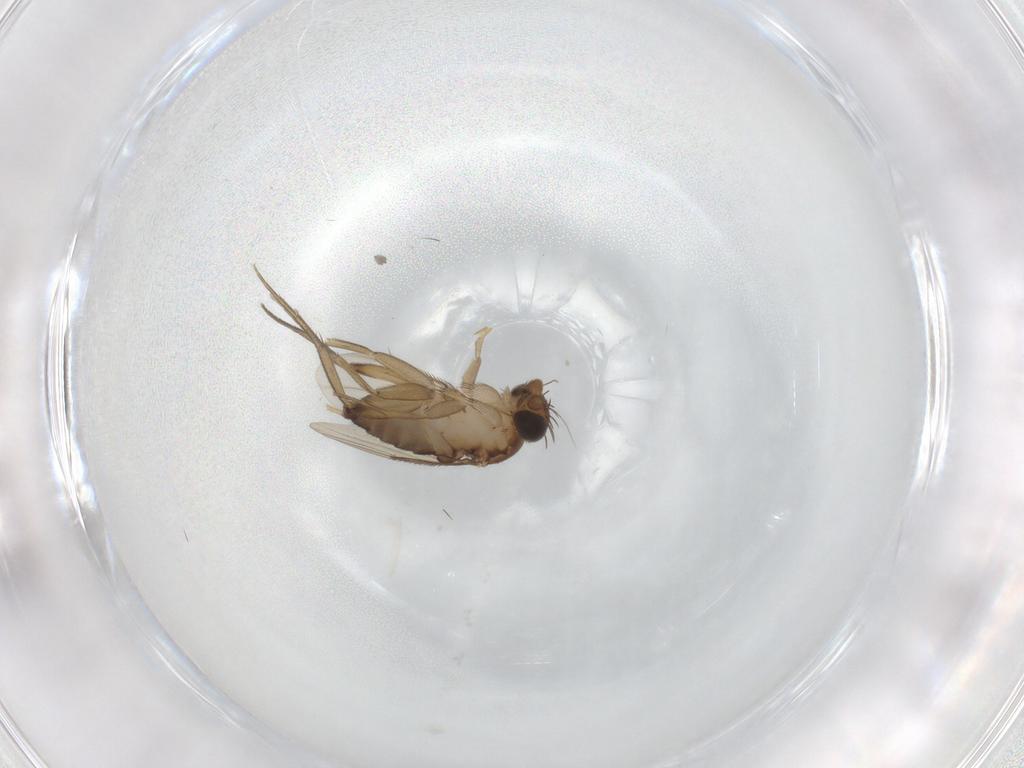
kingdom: Animalia
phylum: Arthropoda
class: Insecta
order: Diptera
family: Phoridae
